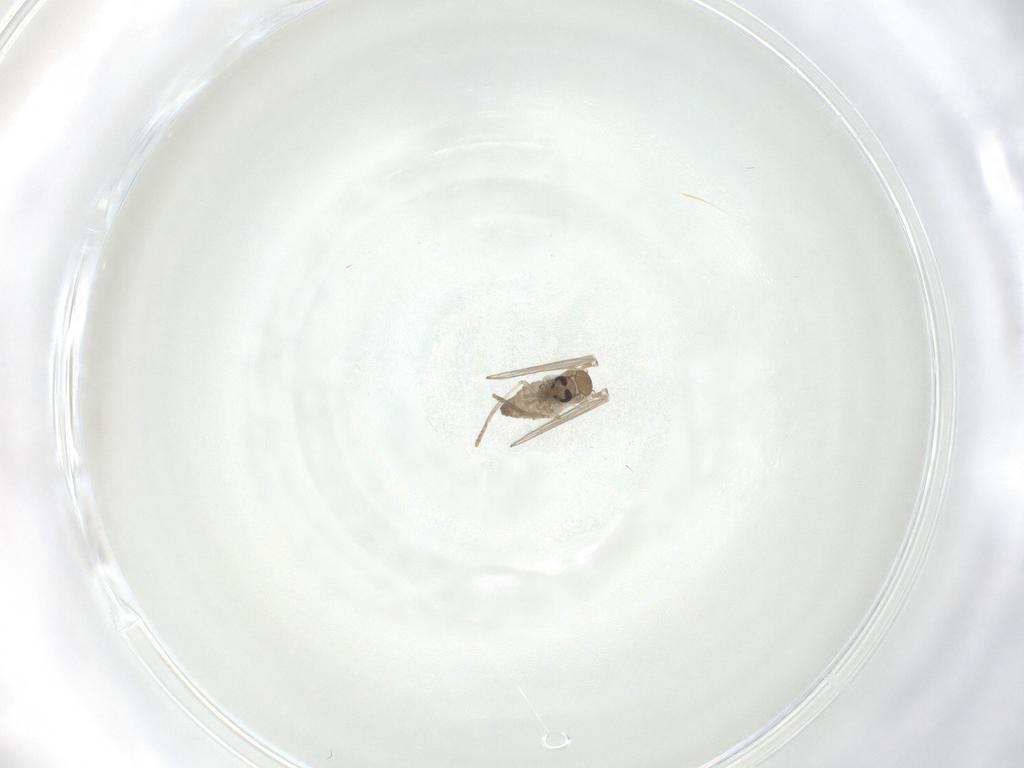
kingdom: Animalia
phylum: Arthropoda
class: Insecta
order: Diptera
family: Psychodidae
